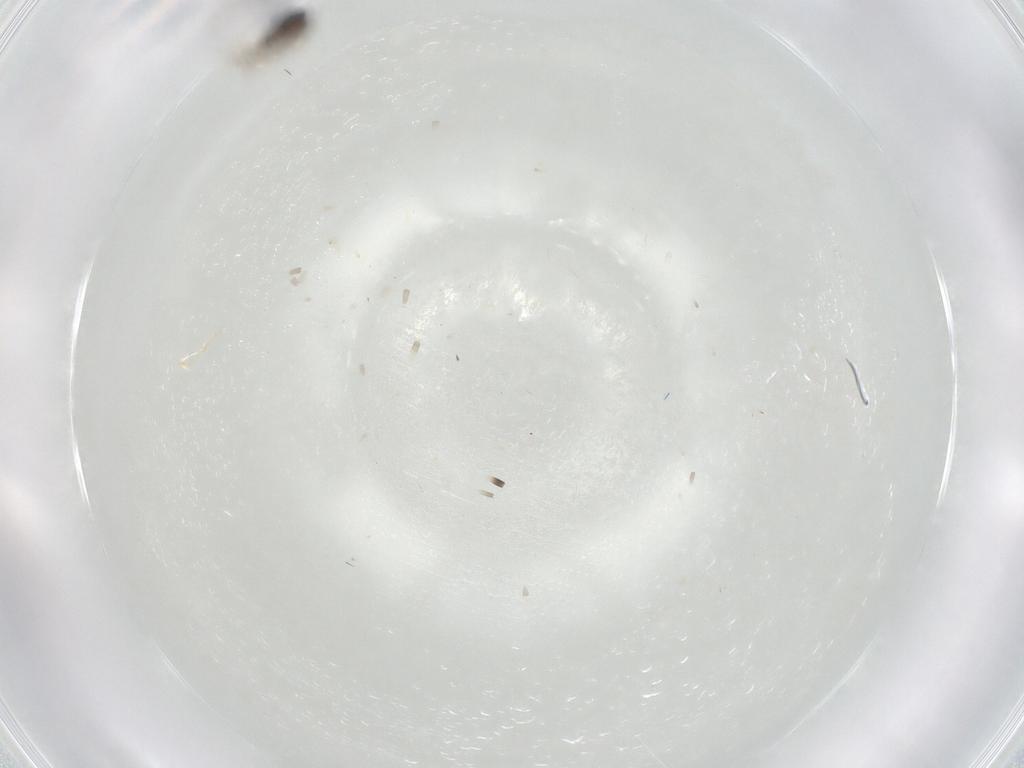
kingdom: Animalia
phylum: Arthropoda
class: Insecta
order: Diptera
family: Ceratopogonidae
